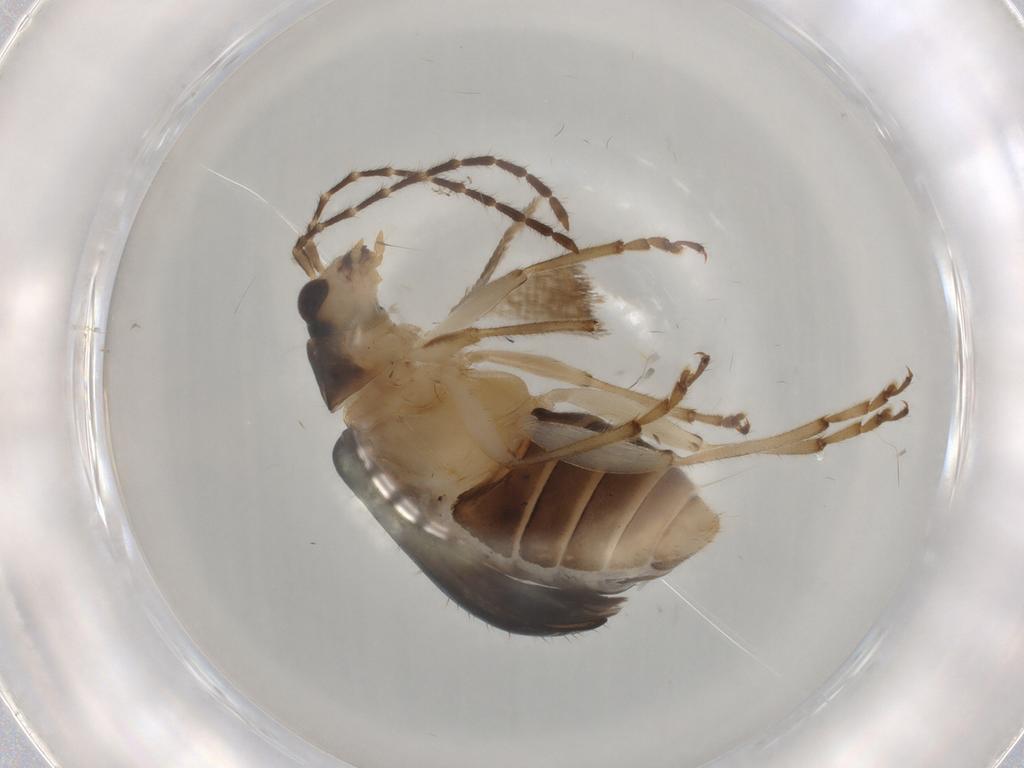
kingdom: Animalia
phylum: Arthropoda
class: Insecta
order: Coleoptera
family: Chrysomelidae
